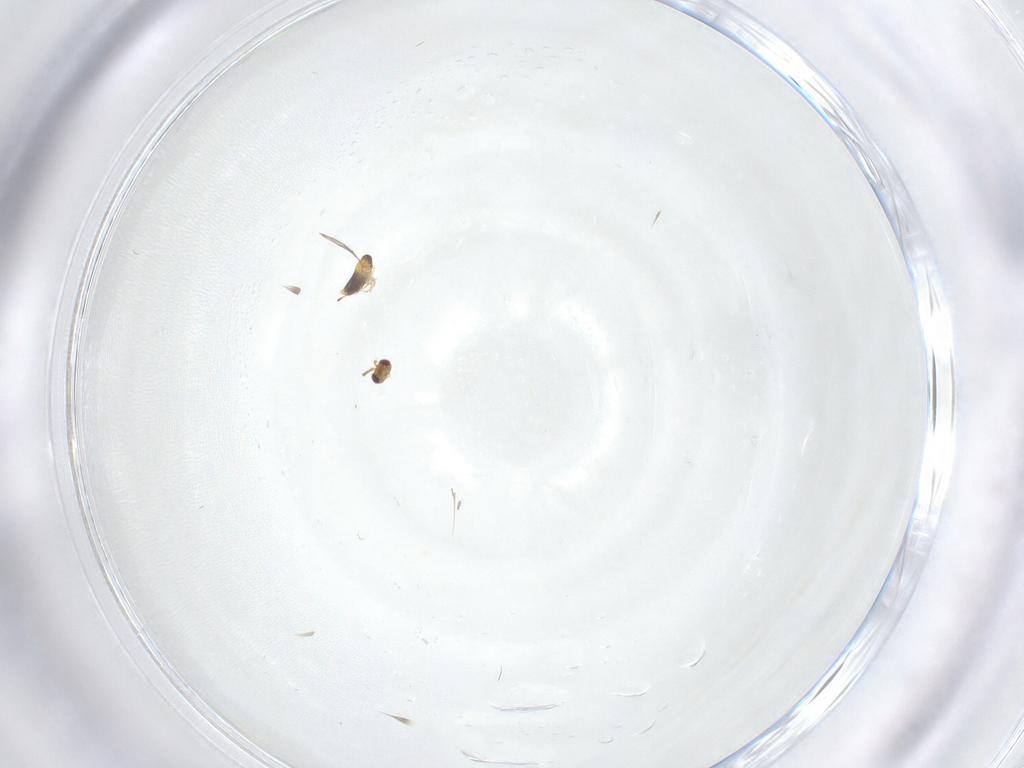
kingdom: Animalia
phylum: Arthropoda
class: Insecta
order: Hymenoptera
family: Aphelinidae
